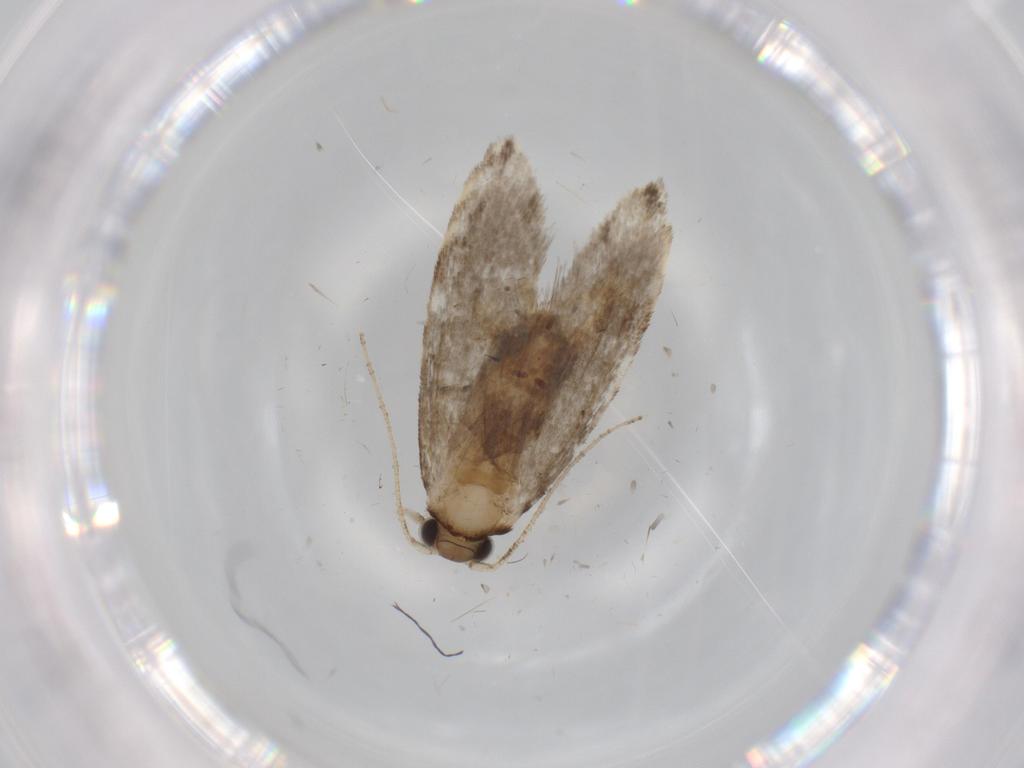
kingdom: Animalia
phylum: Arthropoda
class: Insecta
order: Lepidoptera
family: Tineidae
